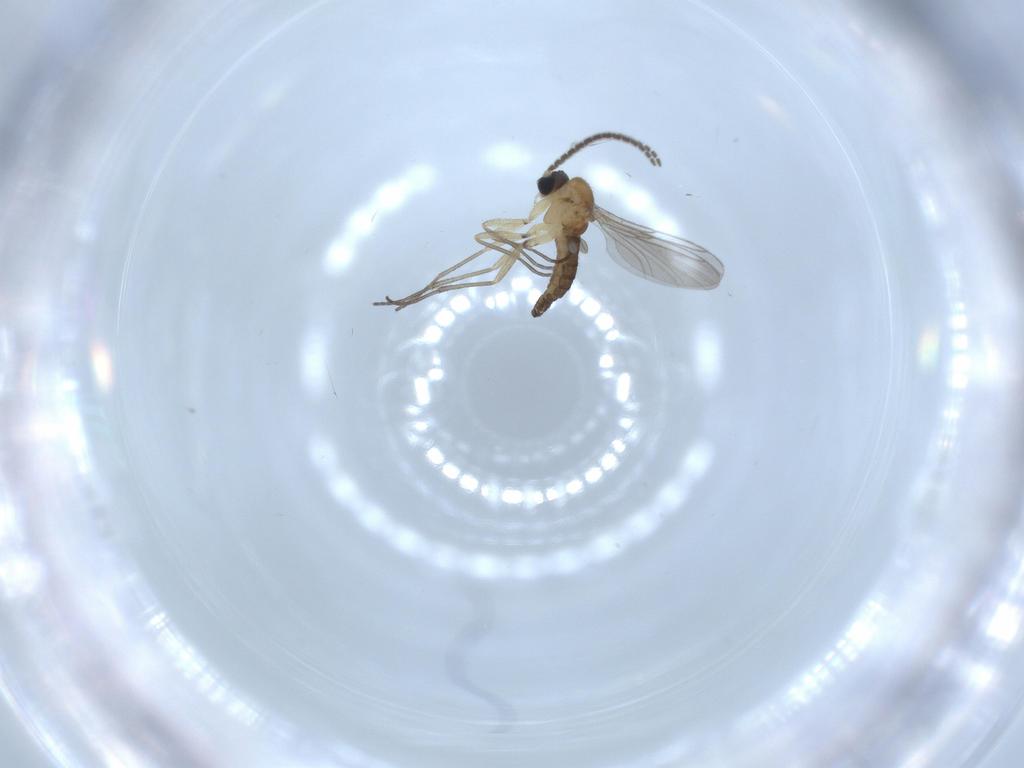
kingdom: Animalia
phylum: Arthropoda
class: Insecta
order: Diptera
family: Sciaridae
